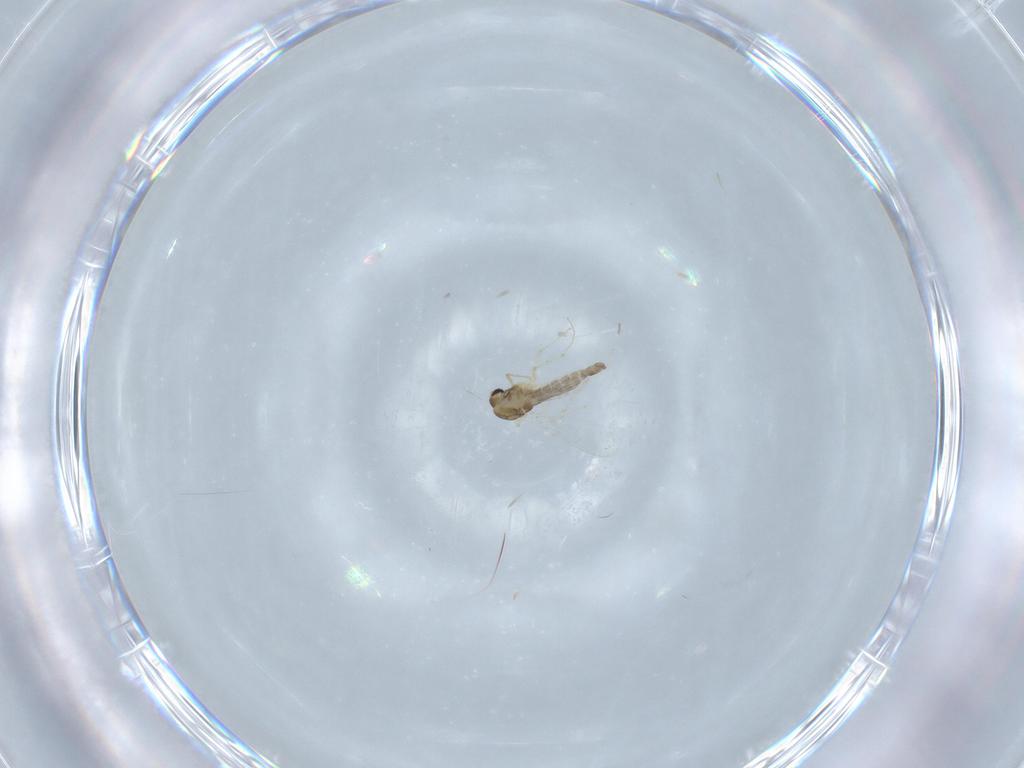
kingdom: Animalia
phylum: Arthropoda
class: Insecta
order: Diptera
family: Chironomidae
